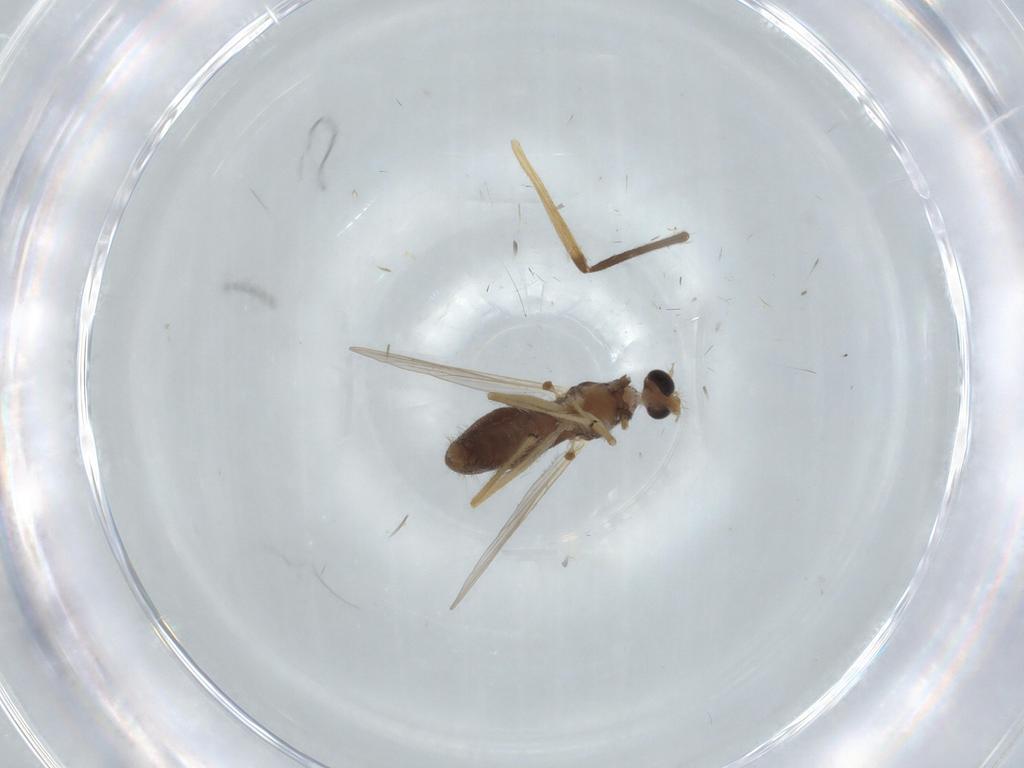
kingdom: Animalia
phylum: Arthropoda
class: Insecta
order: Diptera
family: Chironomidae
